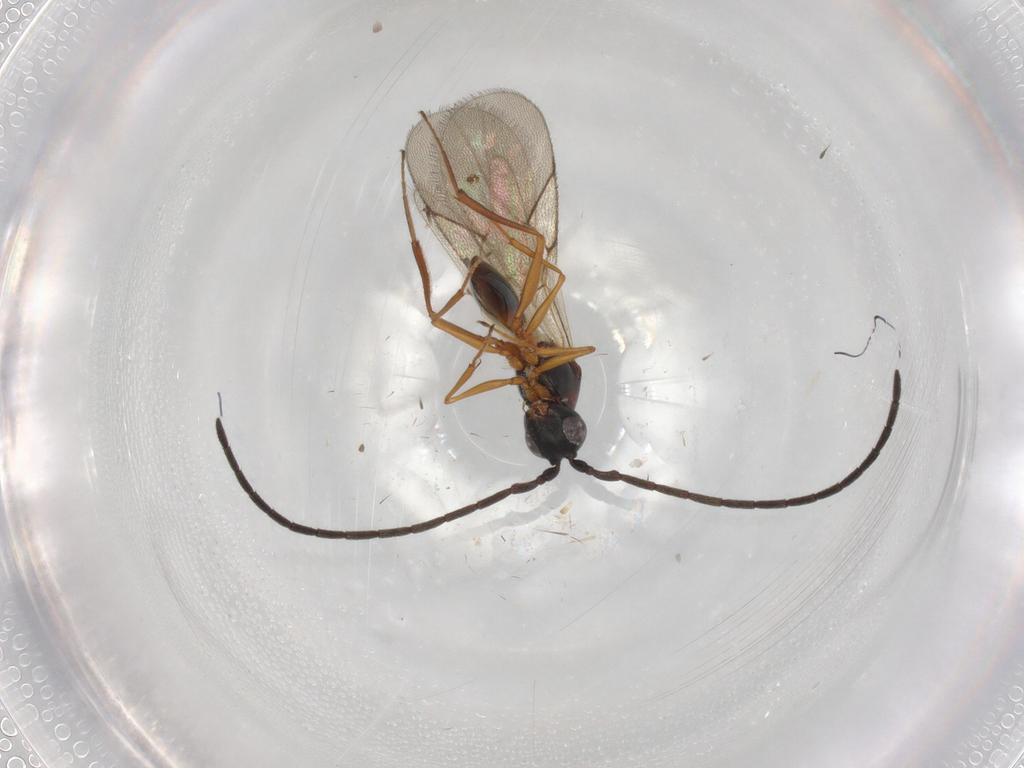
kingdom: Animalia
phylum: Arthropoda
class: Insecta
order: Hymenoptera
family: Figitidae
